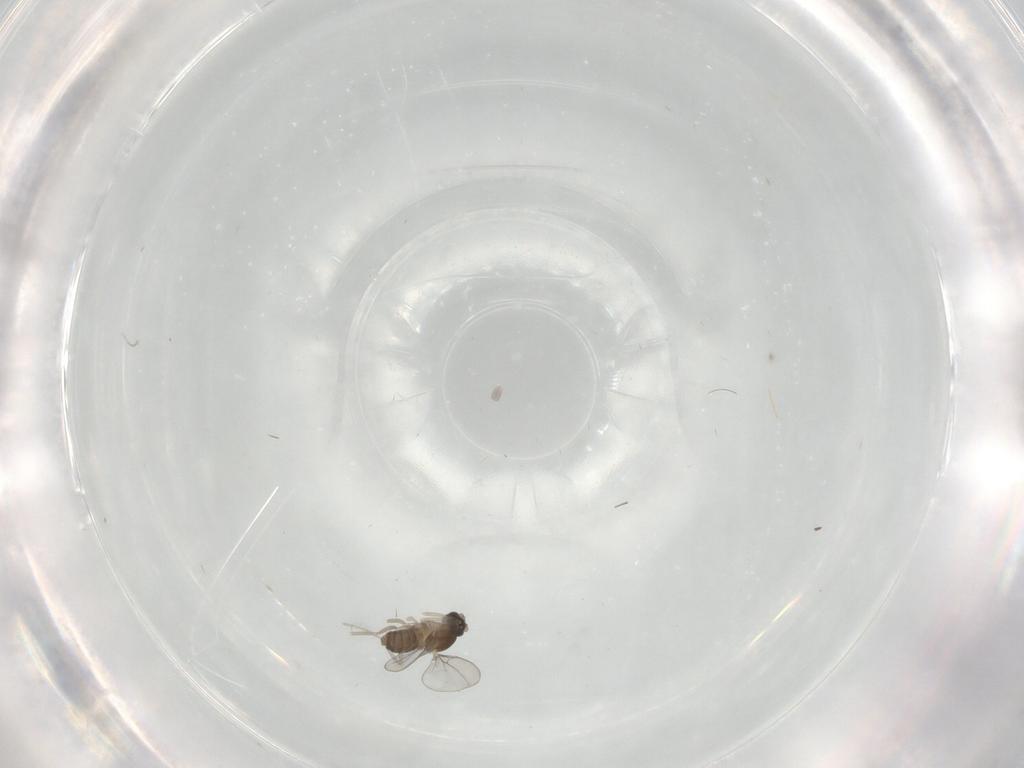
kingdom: Animalia
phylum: Arthropoda
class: Insecta
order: Diptera
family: Cecidomyiidae
